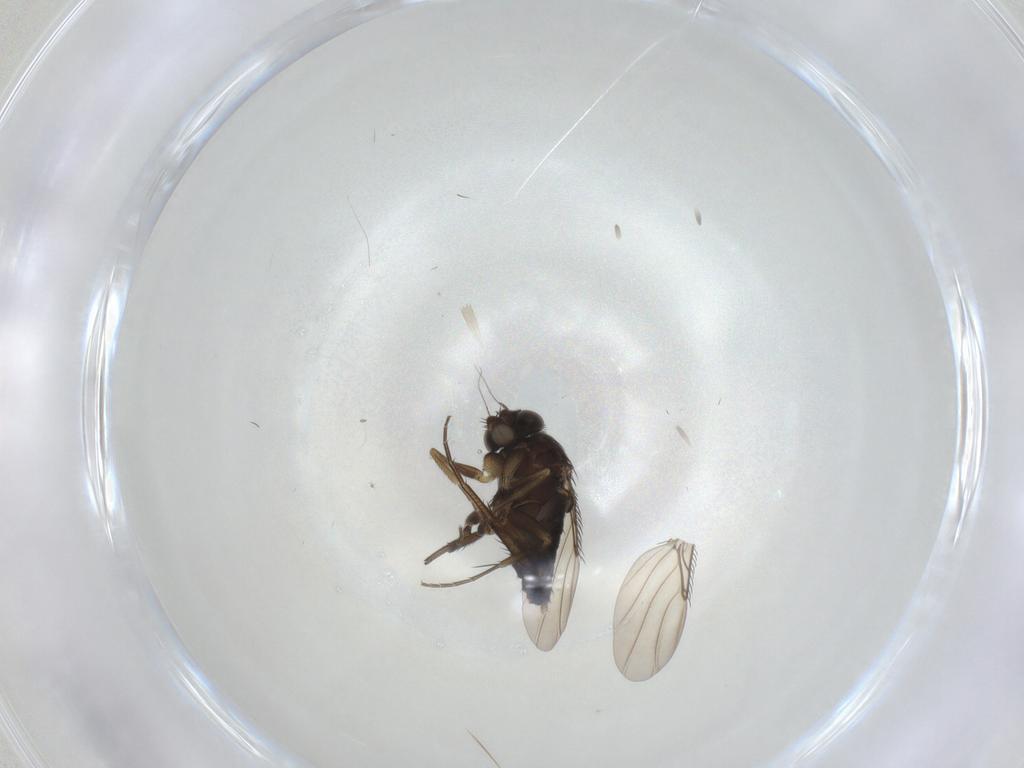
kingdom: Animalia
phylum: Arthropoda
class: Insecta
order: Diptera
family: Phoridae
